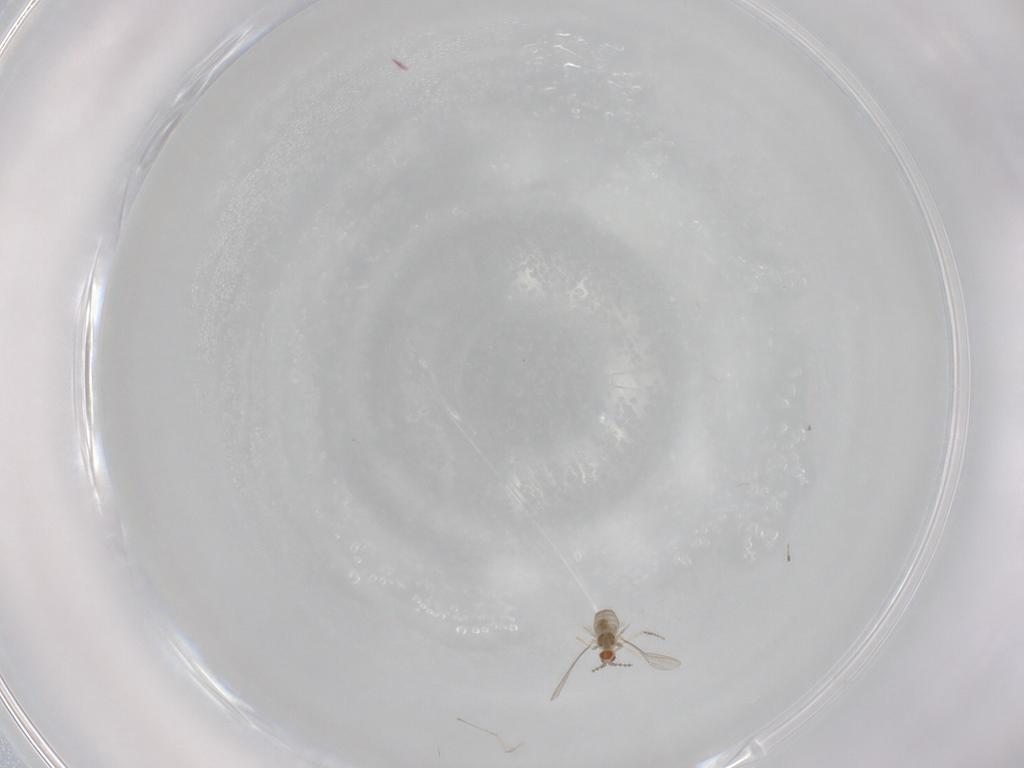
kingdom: Animalia
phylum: Arthropoda
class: Insecta
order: Diptera
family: Cecidomyiidae
